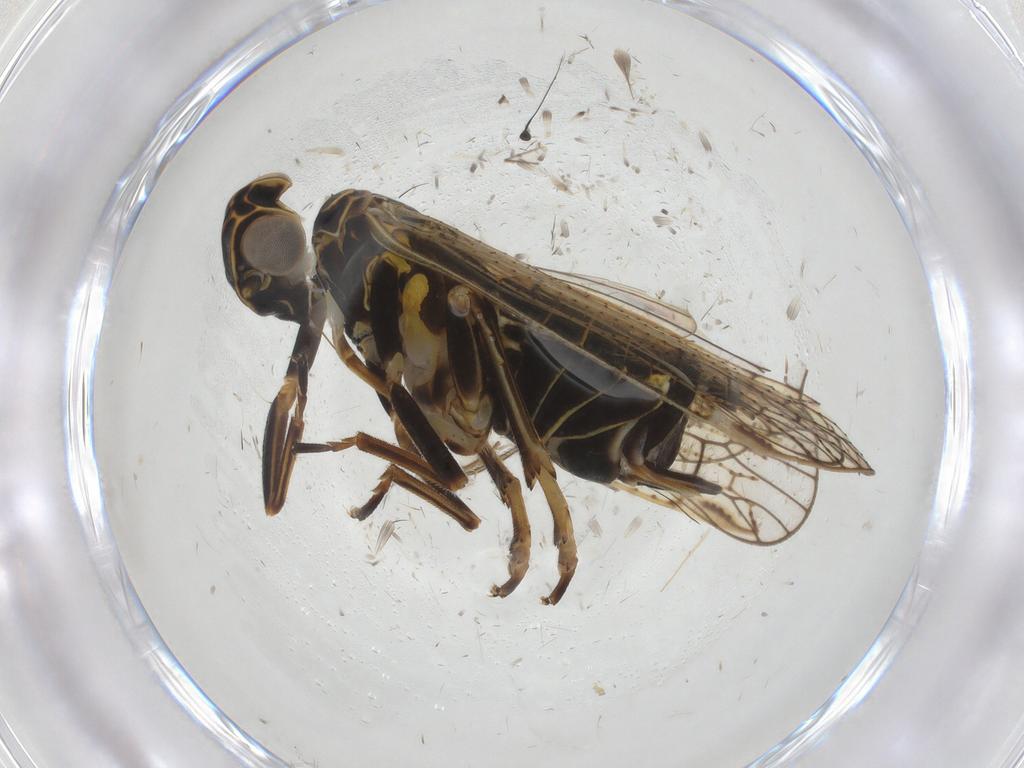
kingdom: Animalia
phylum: Arthropoda
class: Insecta
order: Hemiptera
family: Cixiidae
